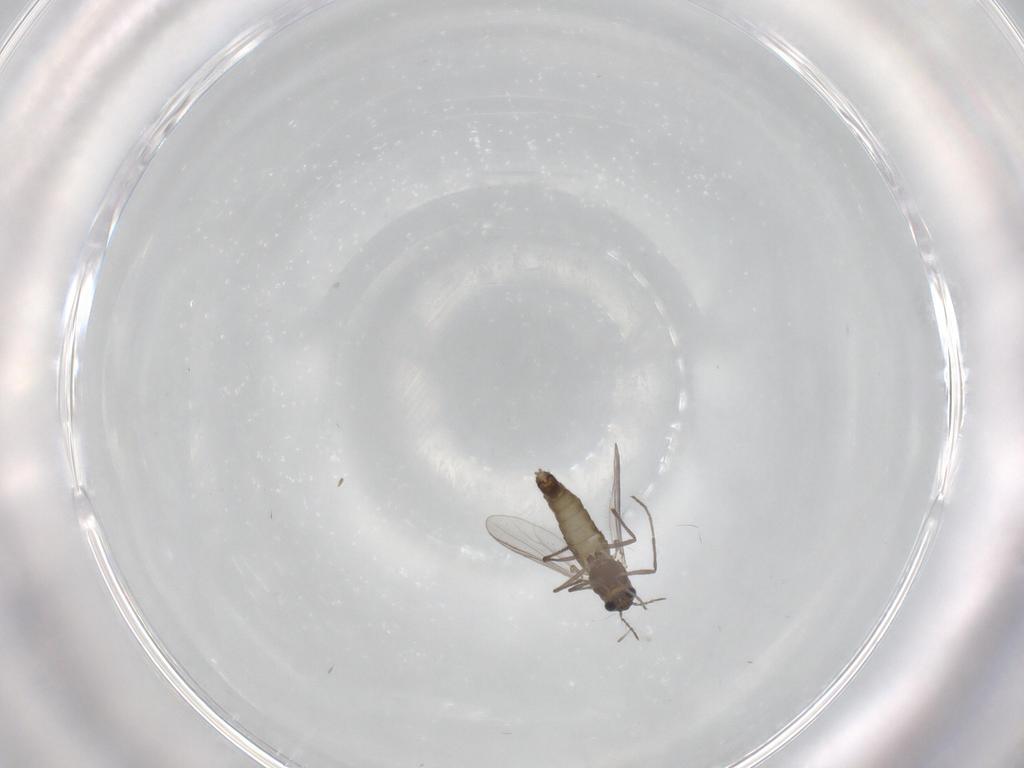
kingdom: Animalia
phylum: Arthropoda
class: Insecta
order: Diptera
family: Chironomidae
